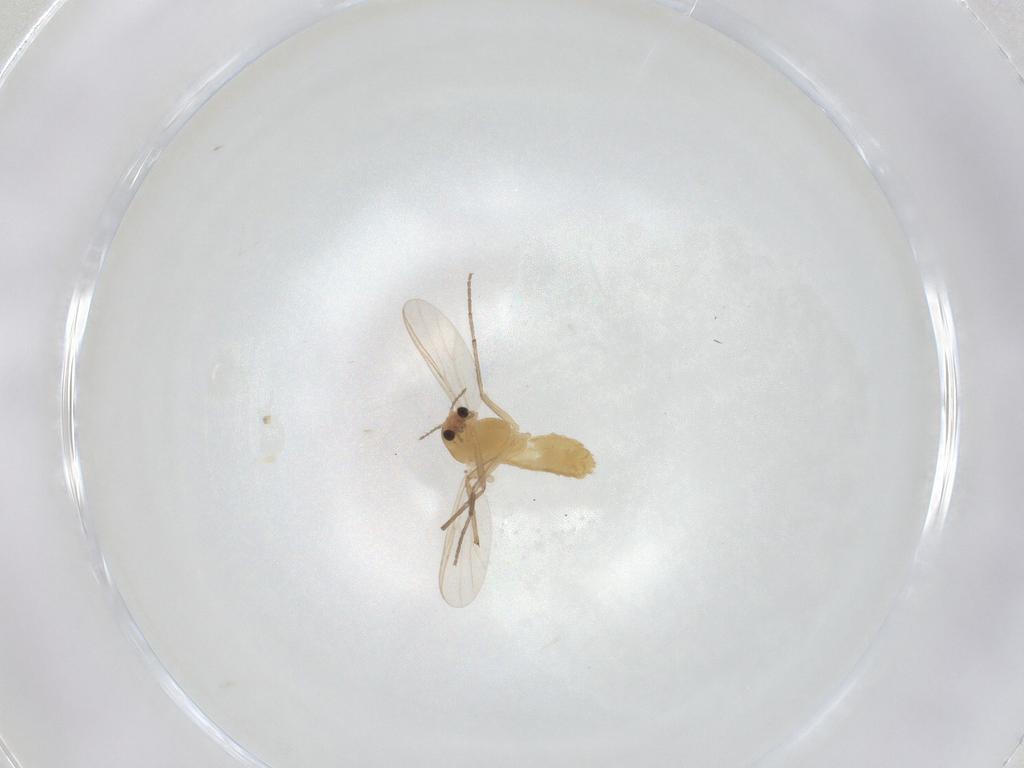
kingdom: Animalia
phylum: Arthropoda
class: Insecta
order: Diptera
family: Chironomidae
